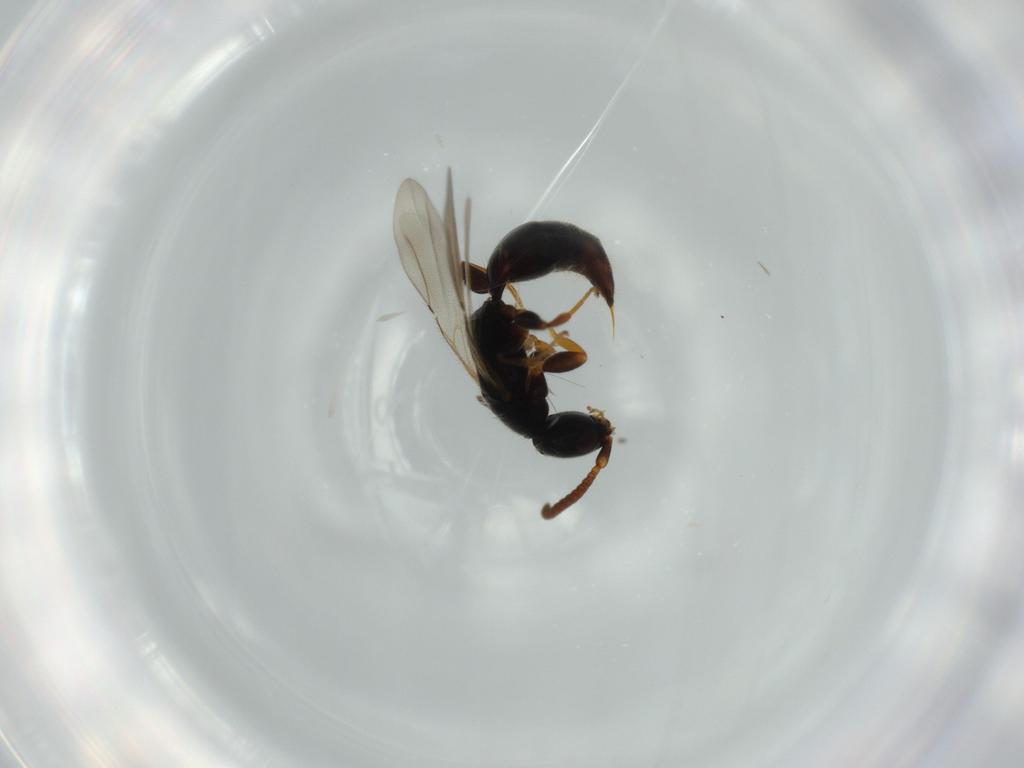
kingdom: Animalia
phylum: Arthropoda
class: Insecta
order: Hymenoptera
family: Bethylidae
